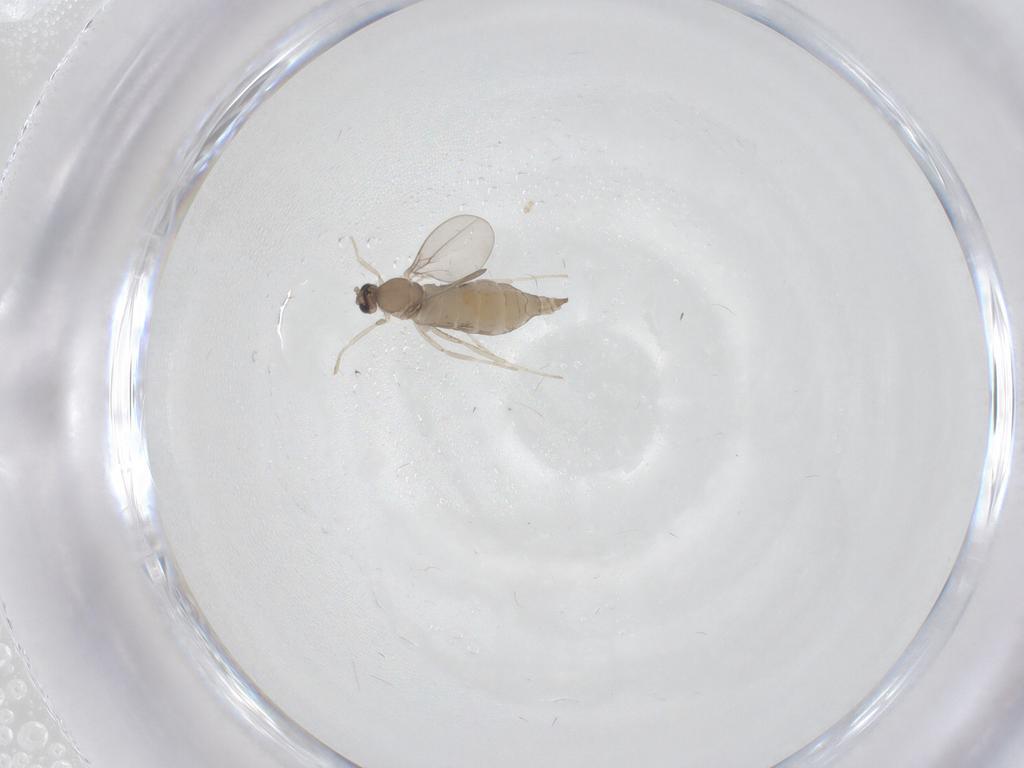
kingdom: Animalia
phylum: Arthropoda
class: Insecta
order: Diptera
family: Cecidomyiidae
